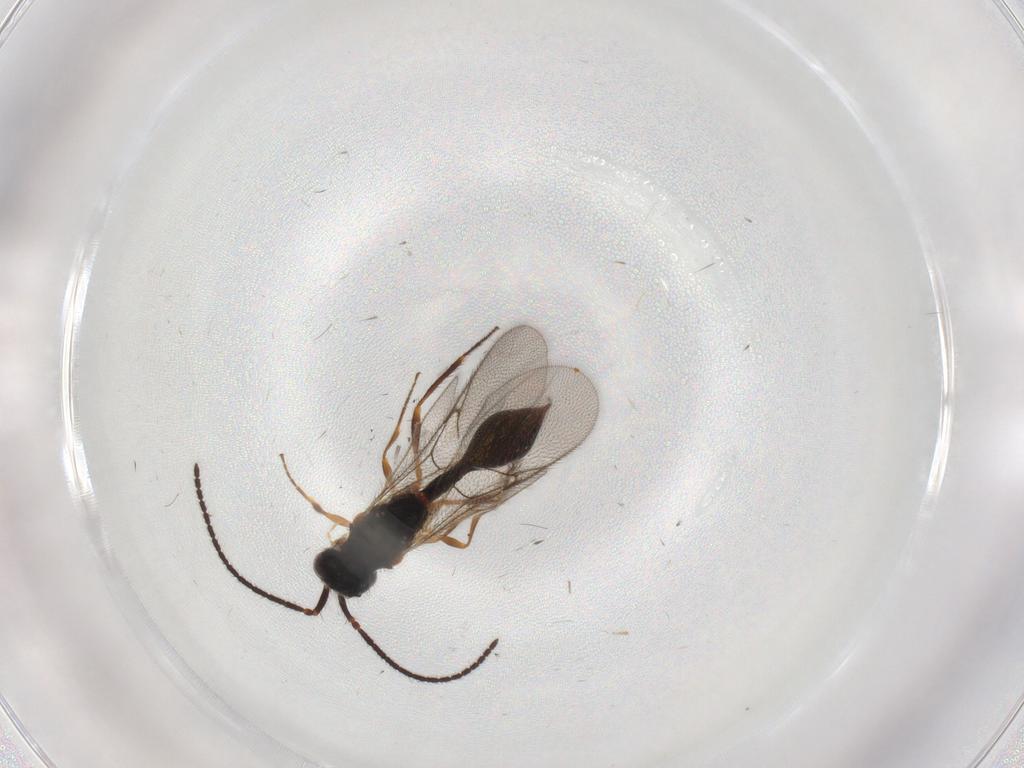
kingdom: Animalia
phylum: Arthropoda
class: Insecta
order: Hymenoptera
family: Diapriidae
